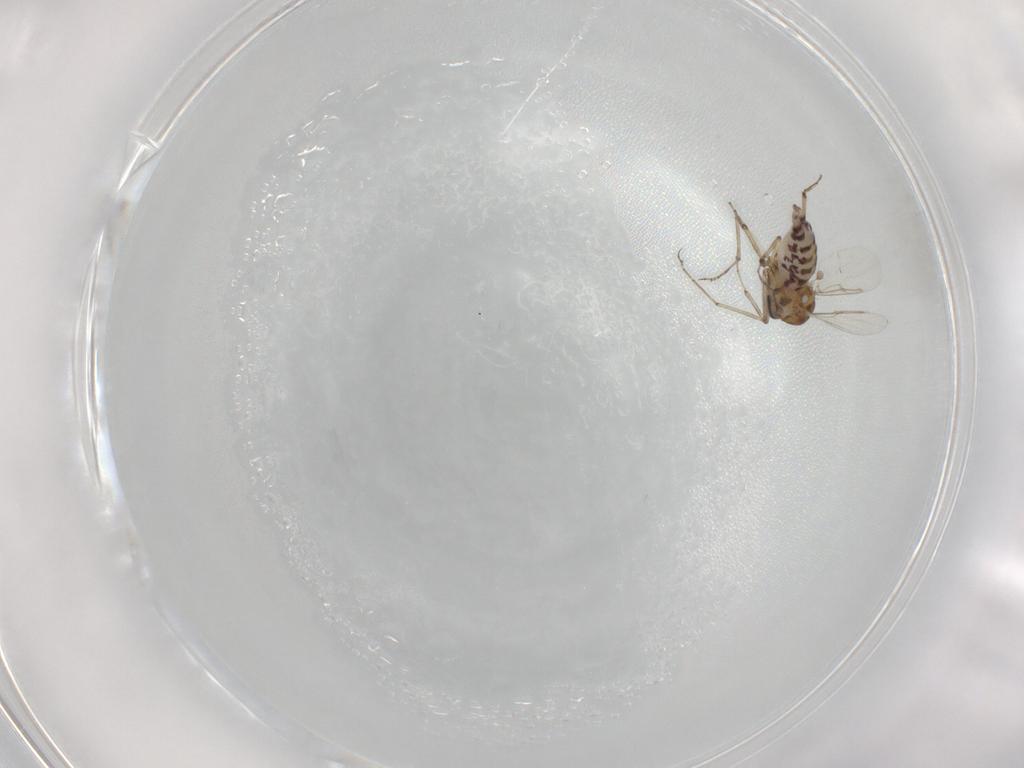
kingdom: Animalia
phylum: Arthropoda
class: Insecta
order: Diptera
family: Ceratopogonidae
